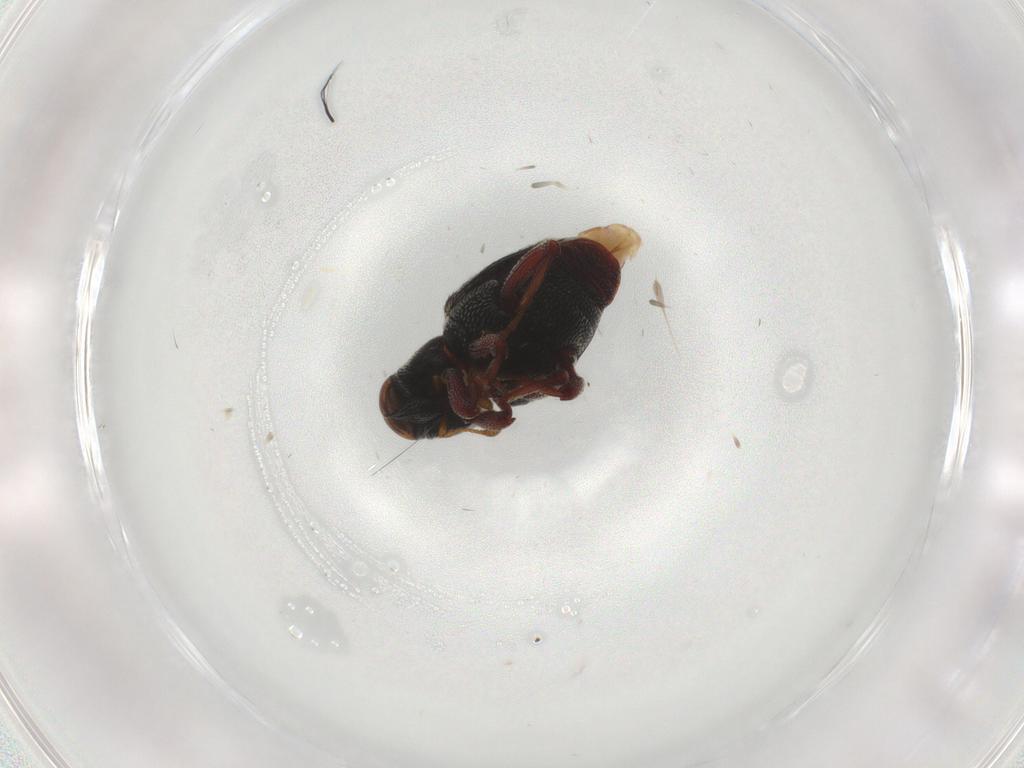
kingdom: Animalia
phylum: Arthropoda
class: Insecta
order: Coleoptera
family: Curculionidae
